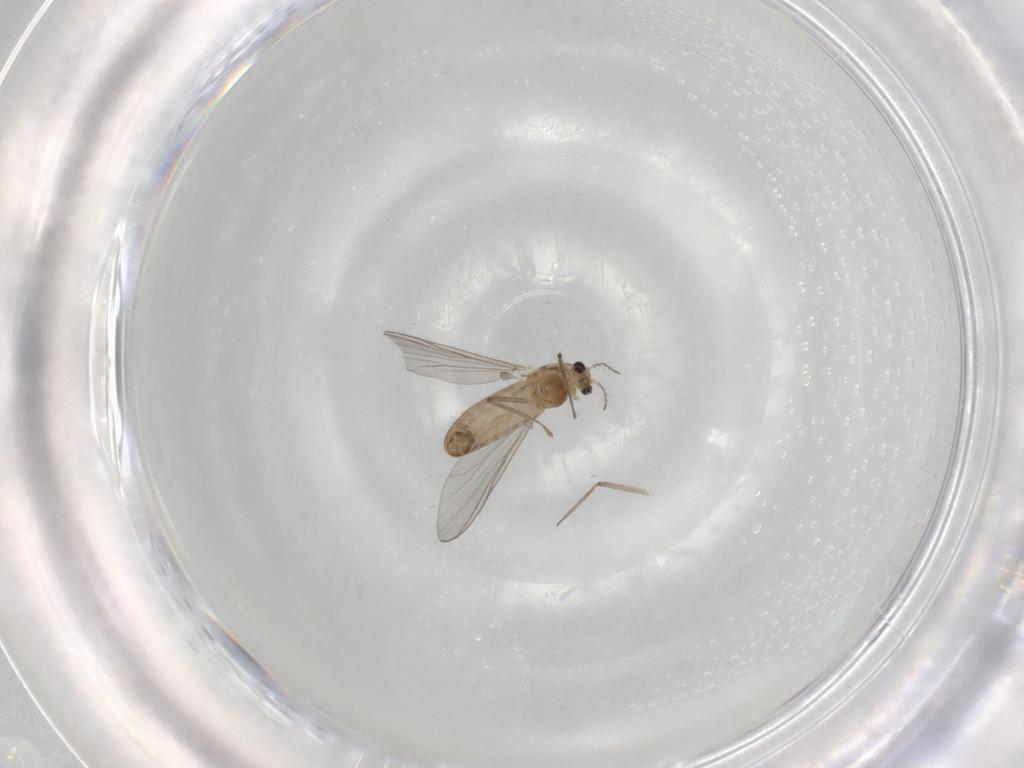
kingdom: Animalia
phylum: Arthropoda
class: Insecta
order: Diptera
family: Chironomidae
